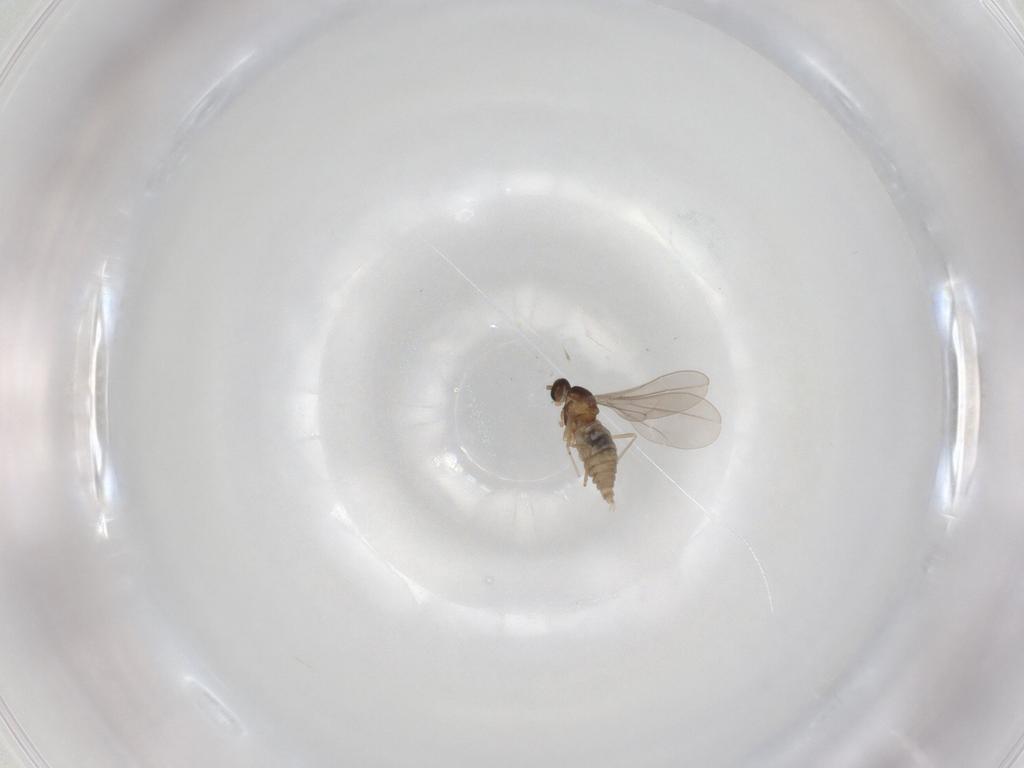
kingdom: Animalia
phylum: Arthropoda
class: Insecta
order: Diptera
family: Cecidomyiidae
